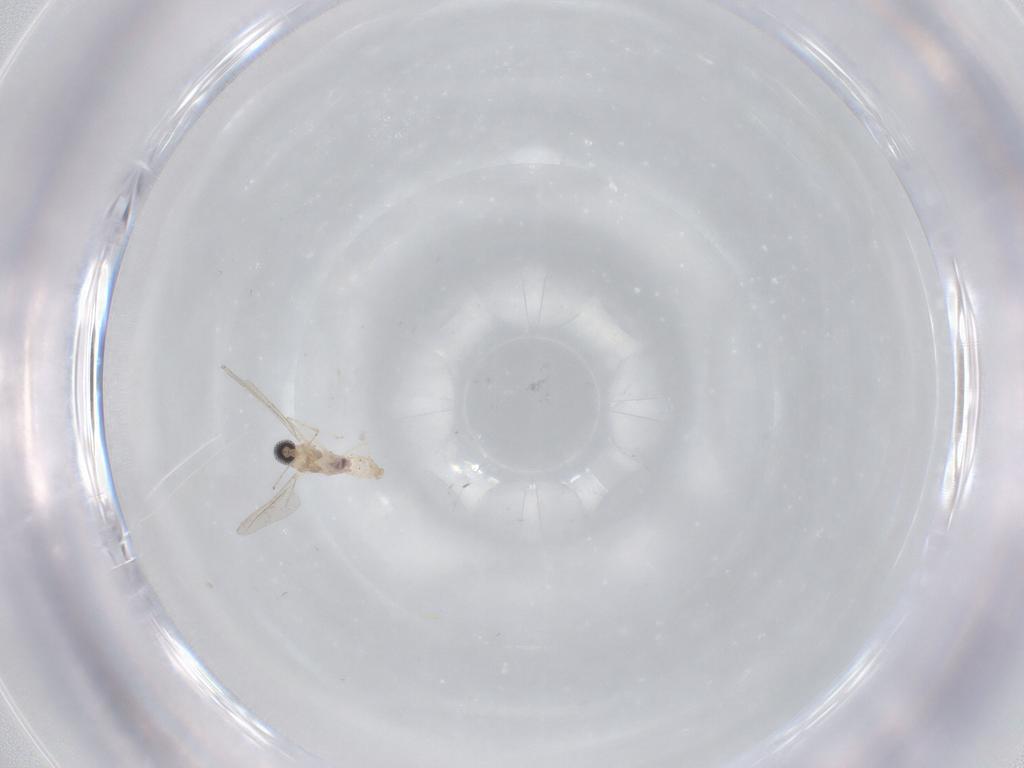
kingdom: Animalia
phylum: Arthropoda
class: Insecta
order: Diptera
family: Cecidomyiidae
